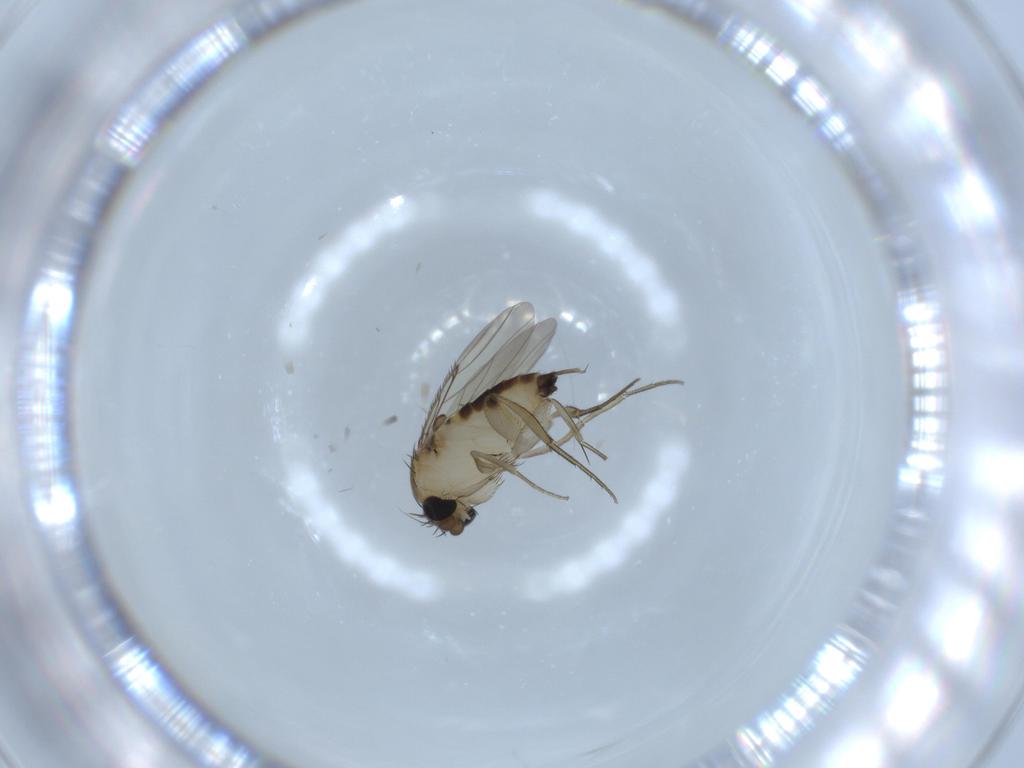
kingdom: Animalia
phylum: Arthropoda
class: Insecta
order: Diptera
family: Phoridae
